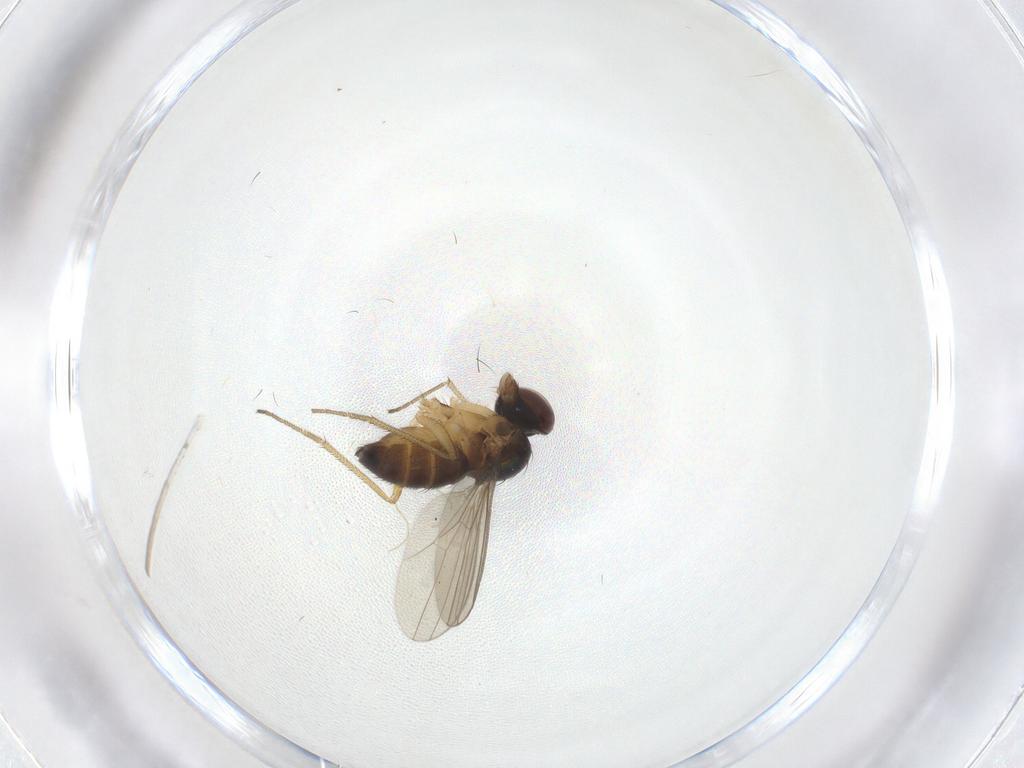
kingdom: Animalia
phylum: Arthropoda
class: Insecta
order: Diptera
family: Dolichopodidae
